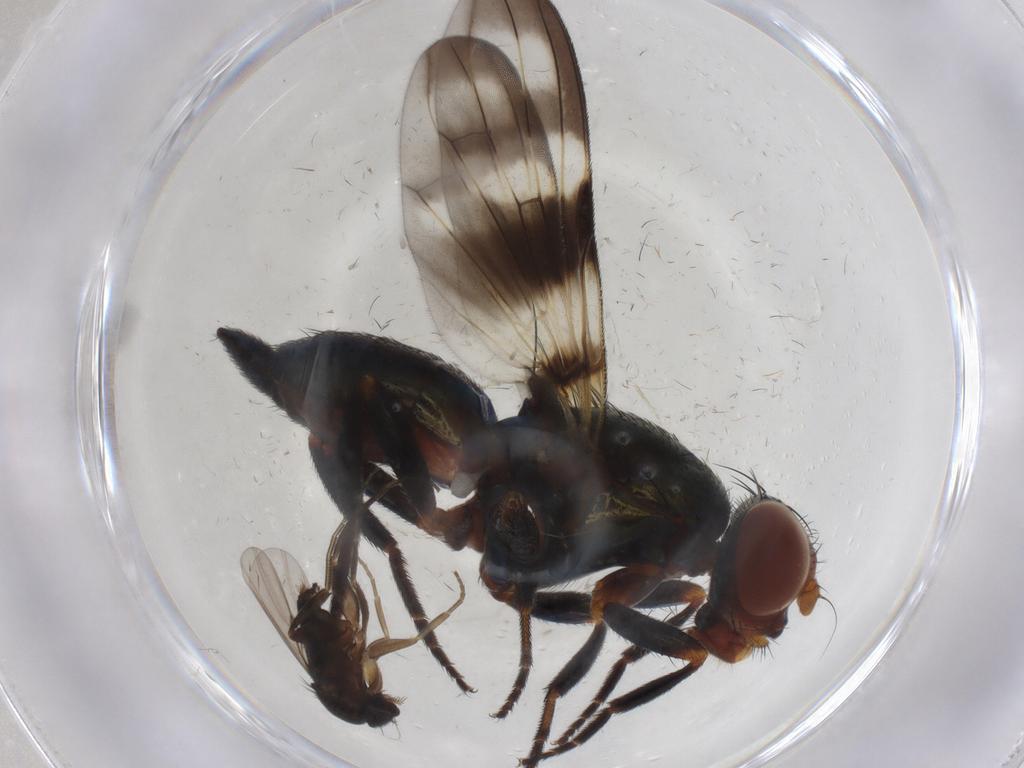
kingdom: Animalia
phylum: Arthropoda
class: Insecta
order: Diptera
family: Phoridae
